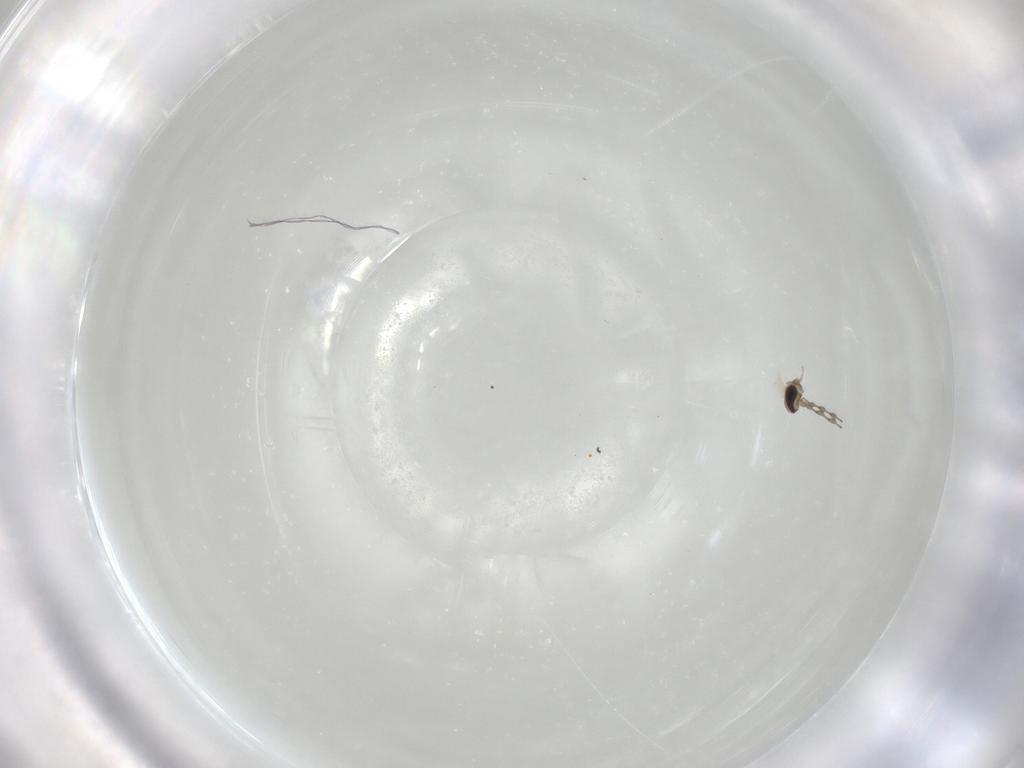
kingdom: Animalia
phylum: Arthropoda
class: Insecta
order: Diptera
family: Cecidomyiidae
